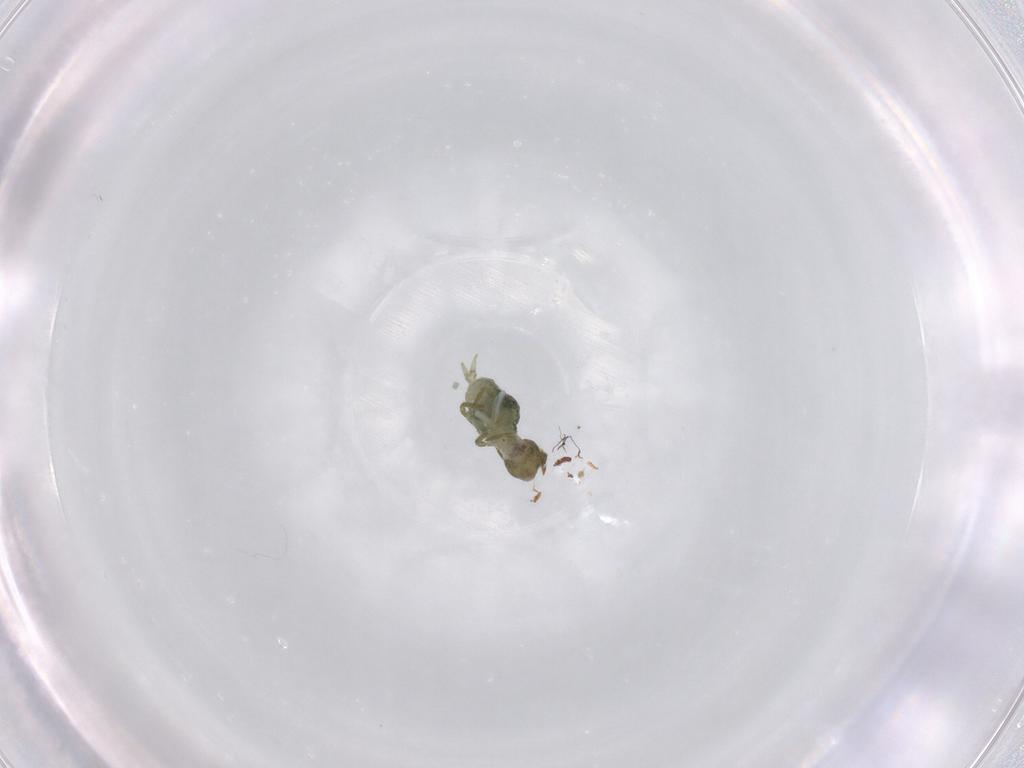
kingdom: Animalia
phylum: Arthropoda
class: Collembola
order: Symphypleona
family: Sminthuridae
